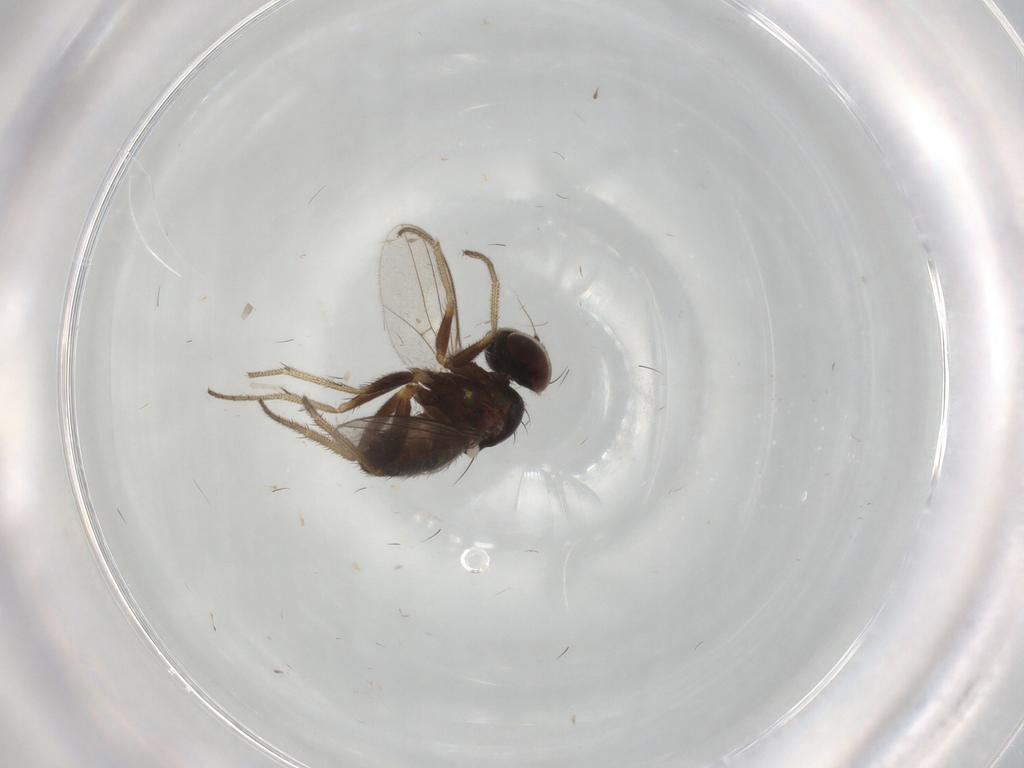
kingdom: Animalia
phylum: Arthropoda
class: Insecta
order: Diptera
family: Dolichopodidae
